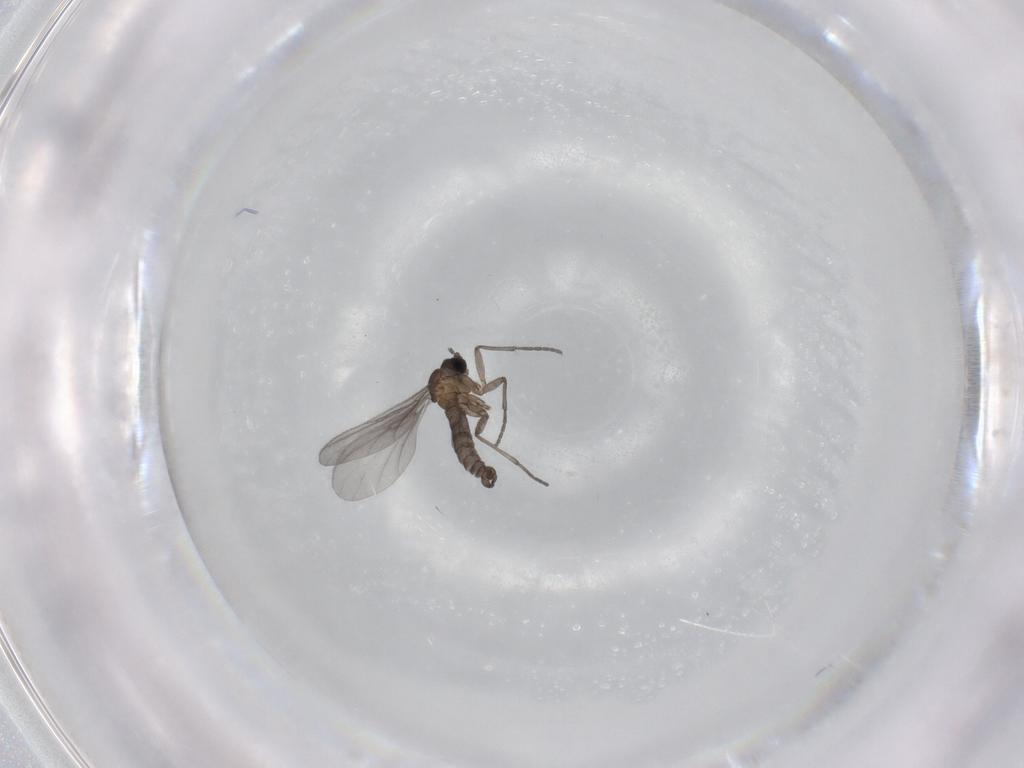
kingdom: Animalia
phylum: Arthropoda
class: Insecta
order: Diptera
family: Sciaridae
